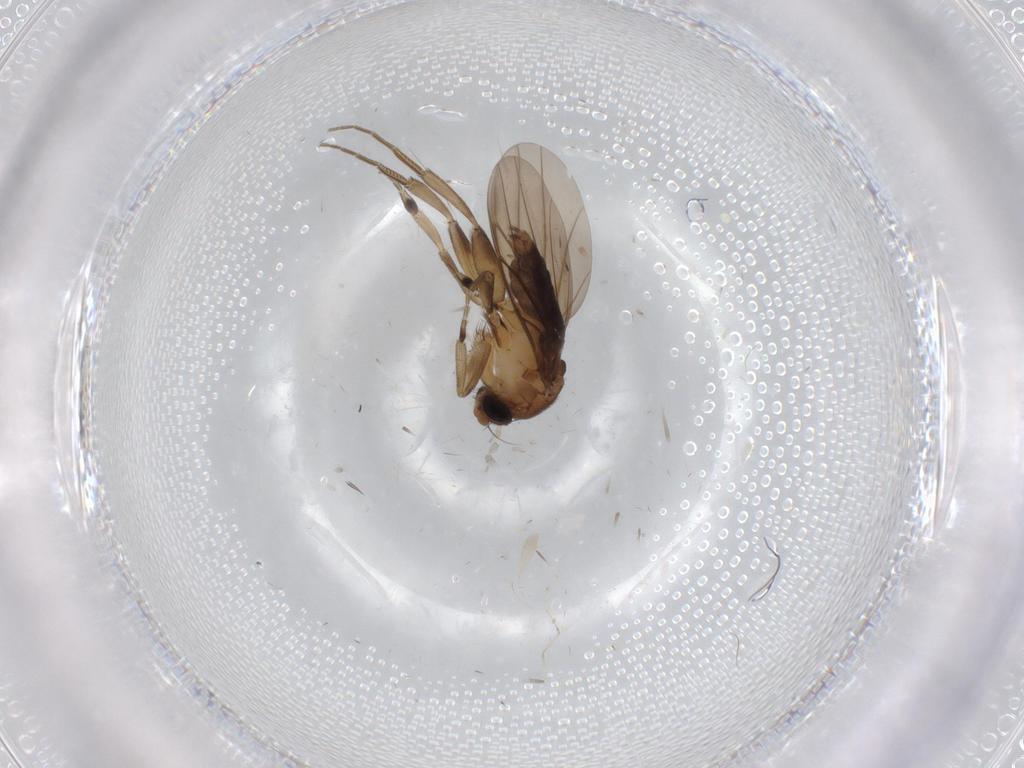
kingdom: Animalia
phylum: Arthropoda
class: Insecta
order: Diptera
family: Phoridae
